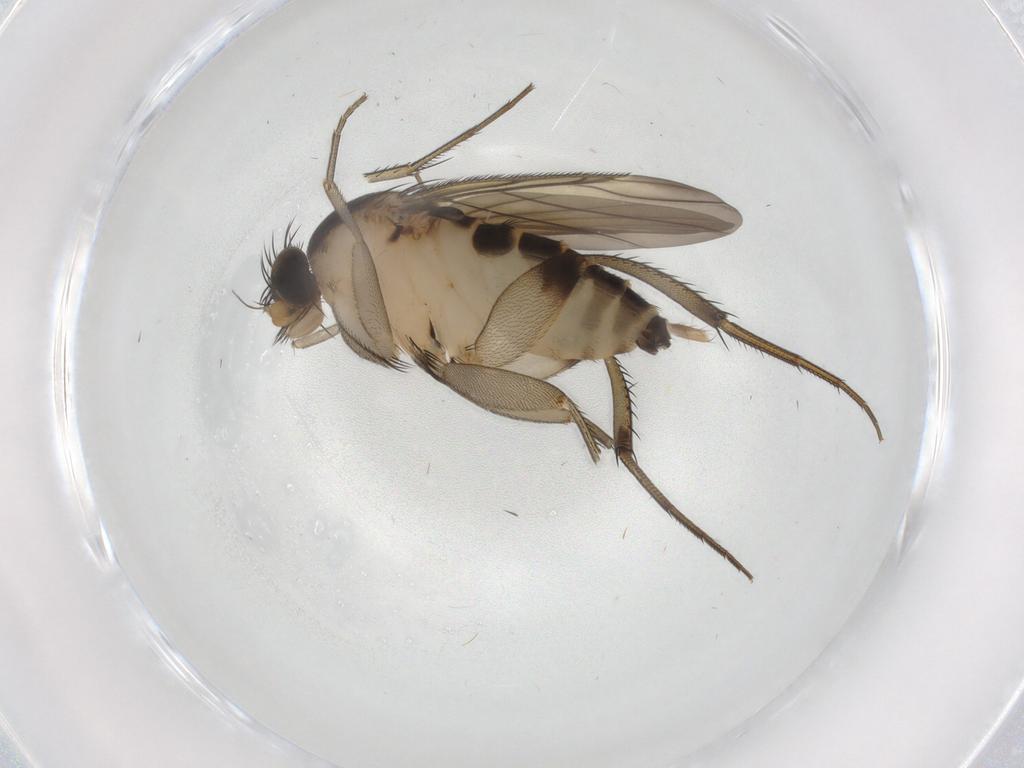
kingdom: Animalia
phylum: Arthropoda
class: Insecta
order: Diptera
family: Phoridae
